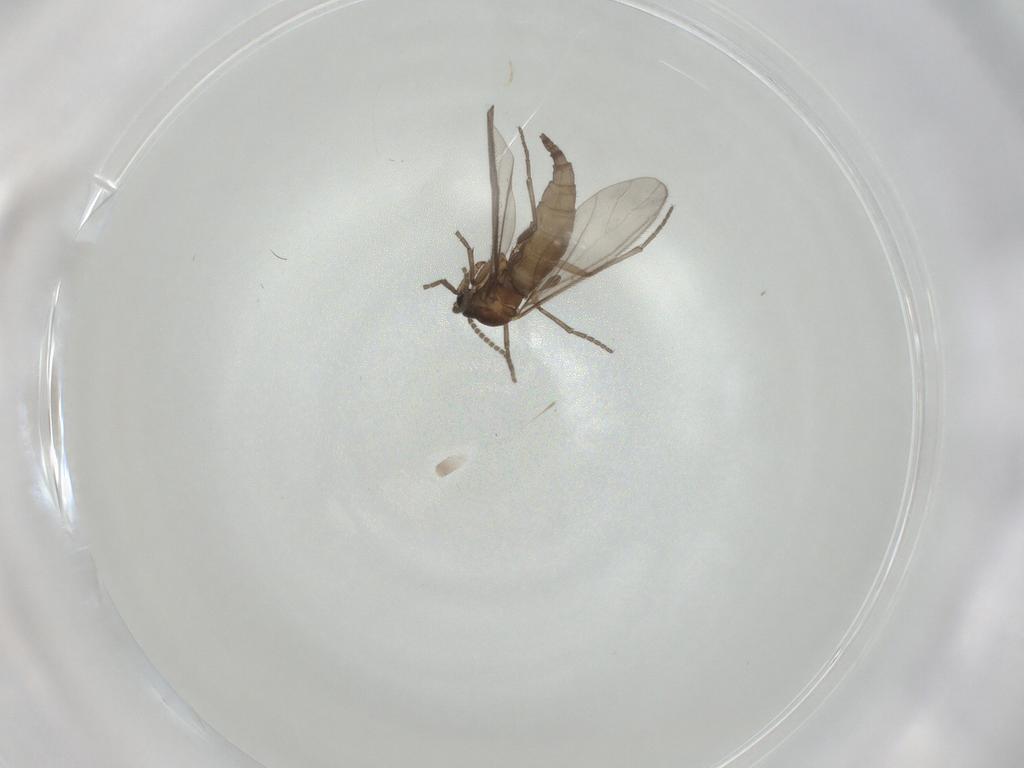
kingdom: Animalia
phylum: Arthropoda
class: Insecta
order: Diptera
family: Sciaridae
